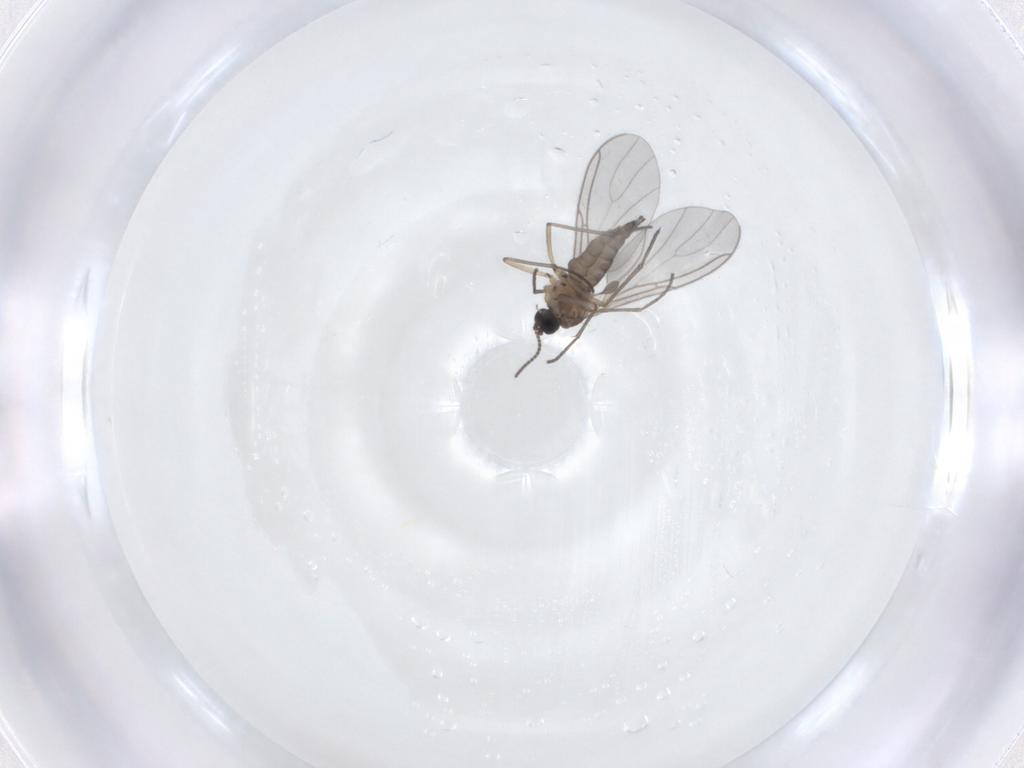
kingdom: Animalia
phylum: Arthropoda
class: Insecta
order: Diptera
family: Sciaridae
